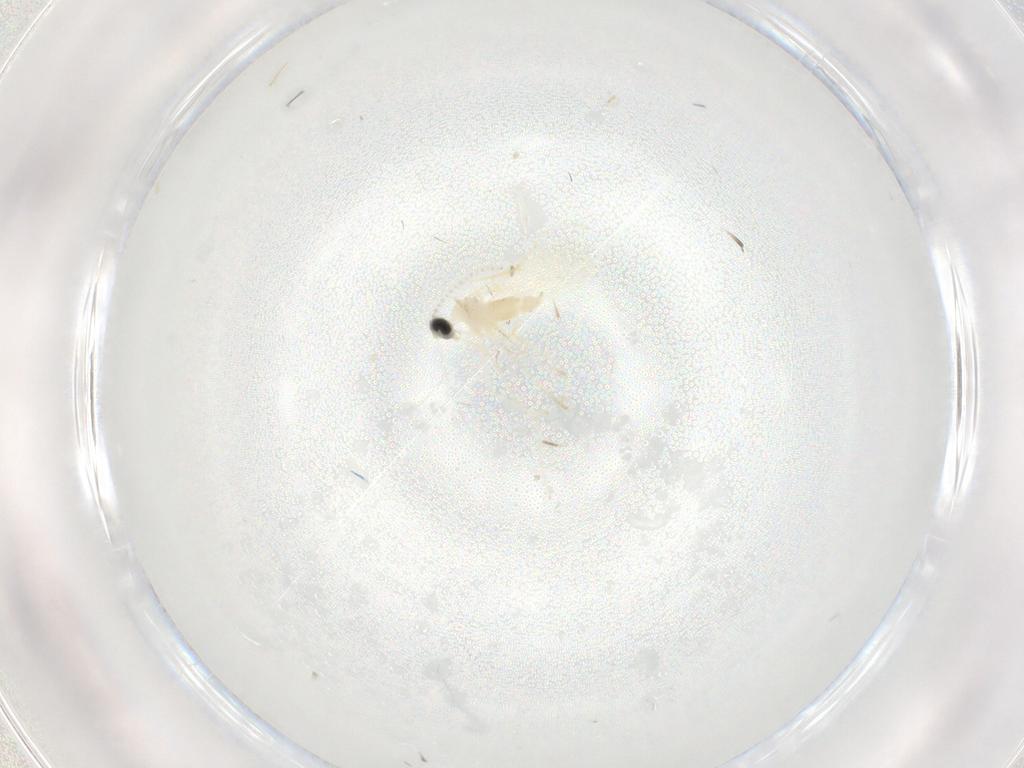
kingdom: Animalia
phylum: Arthropoda
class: Insecta
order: Diptera
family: Cecidomyiidae
